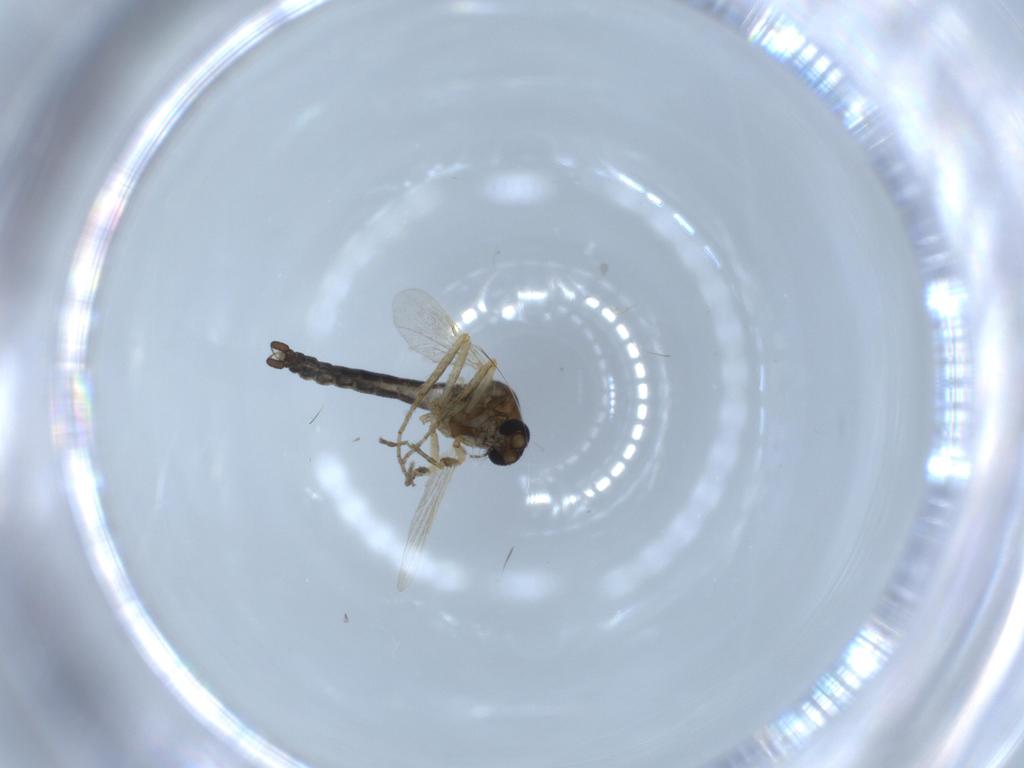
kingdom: Animalia
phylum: Arthropoda
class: Insecta
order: Diptera
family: Ceratopogonidae
